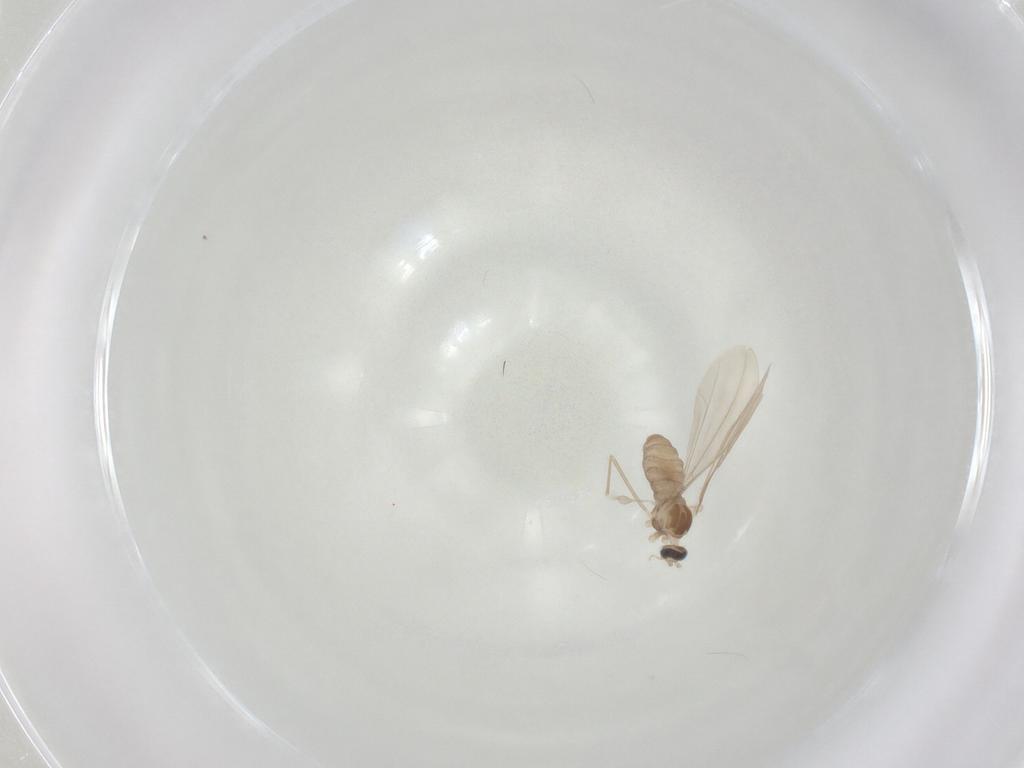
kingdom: Animalia
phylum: Arthropoda
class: Insecta
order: Diptera
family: Cecidomyiidae
